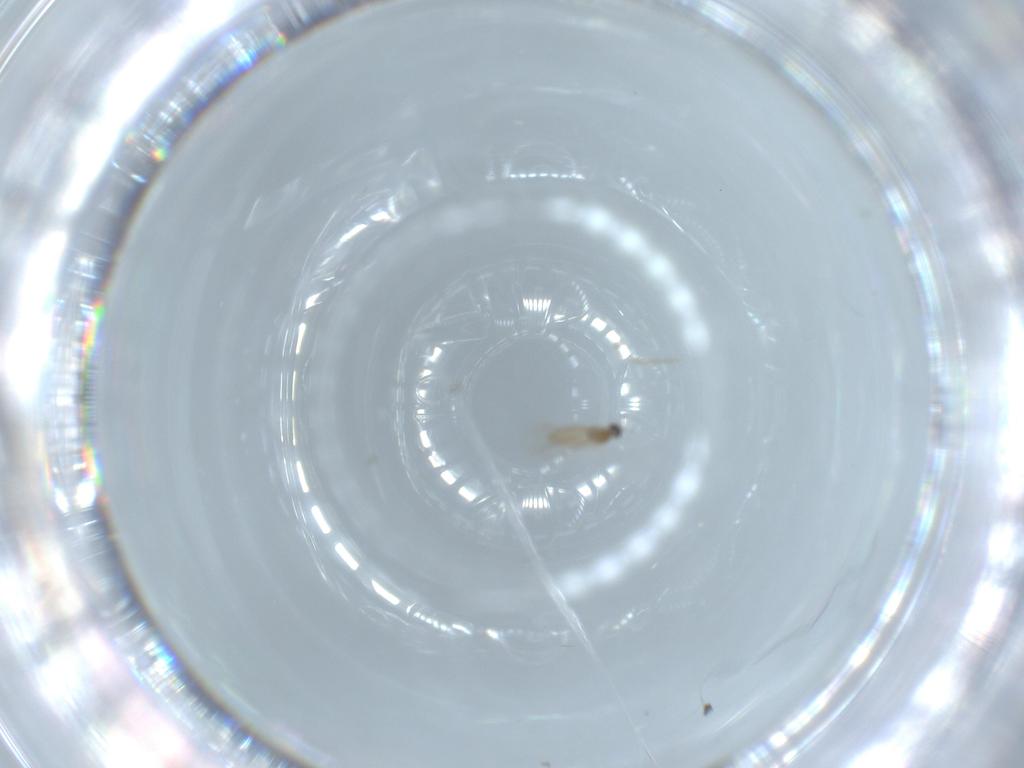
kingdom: Animalia
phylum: Arthropoda
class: Insecta
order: Diptera
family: Cecidomyiidae
